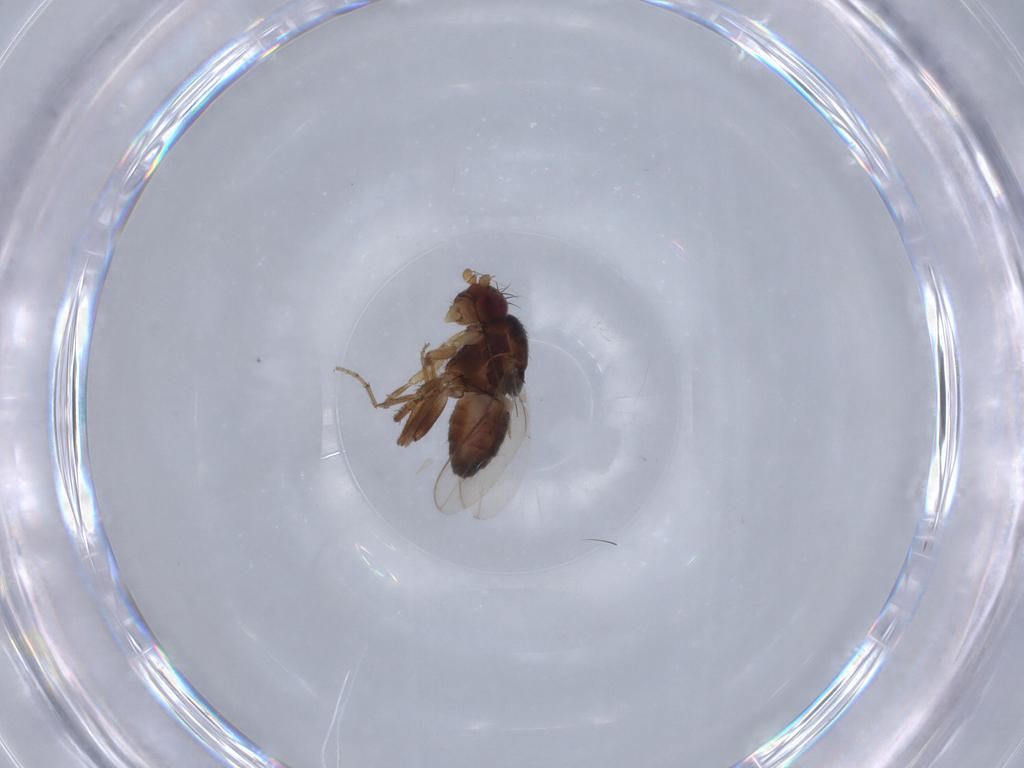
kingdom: Animalia
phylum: Arthropoda
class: Insecta
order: Diptera
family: Sphaeroceridae
